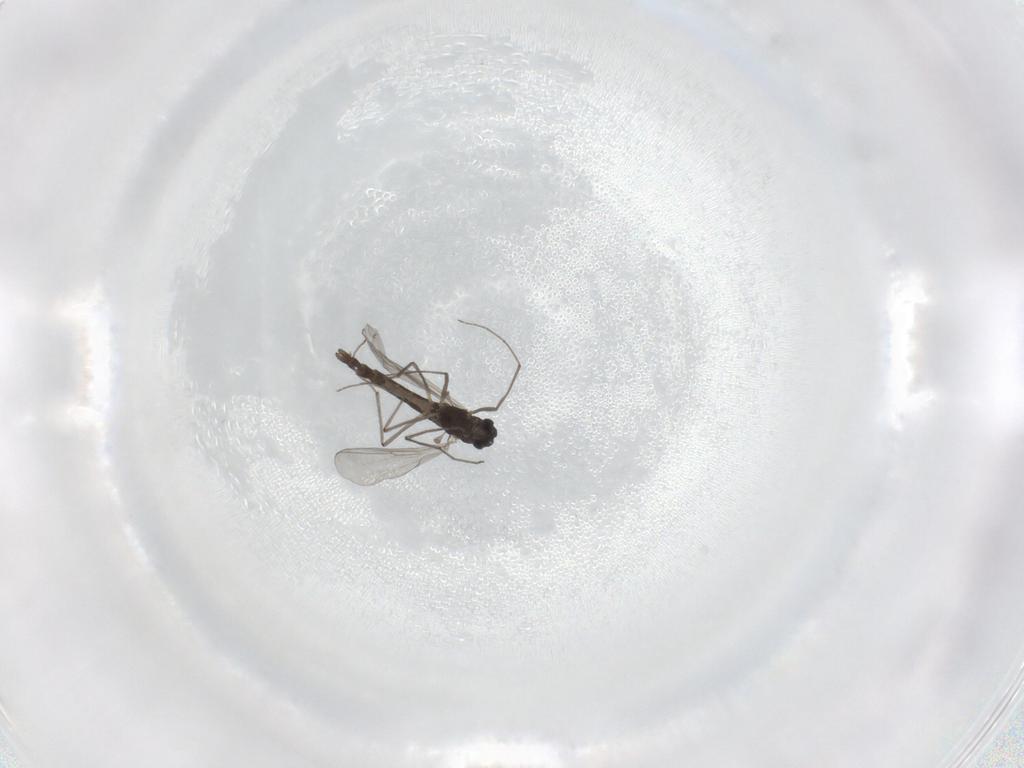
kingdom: Animalia
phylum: Arthropoda
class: Insecta
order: Diptera
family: Chironomidae
